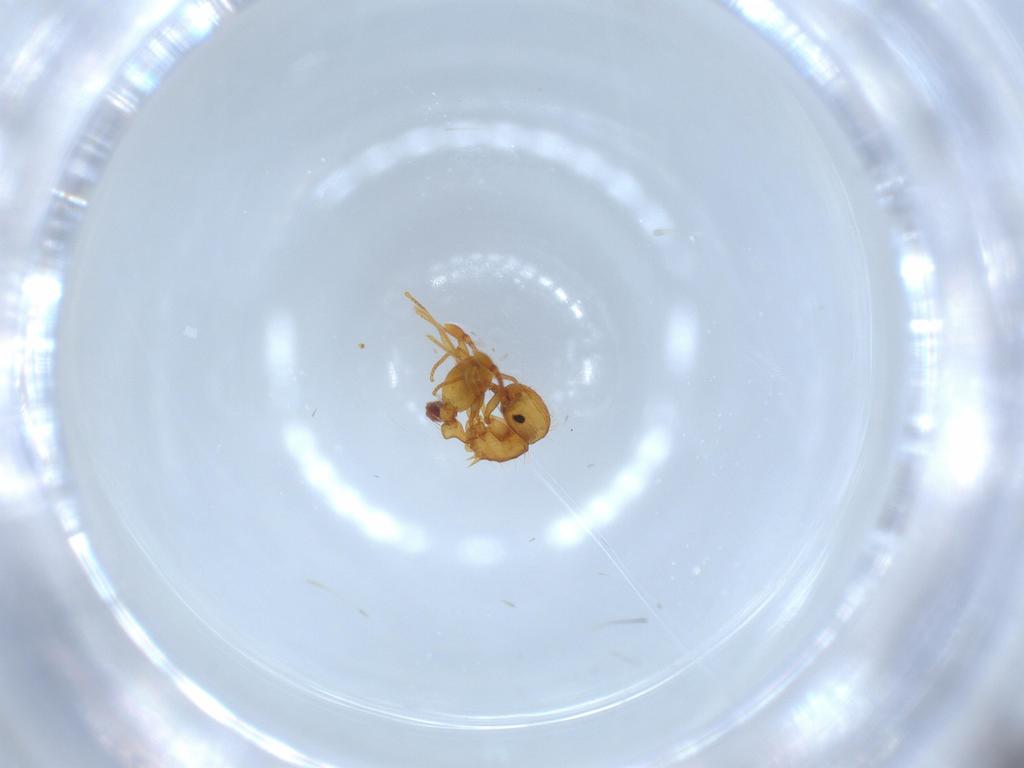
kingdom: Animalia
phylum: Arthropoda
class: Insecta
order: Hymenoptera
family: Formicidae
